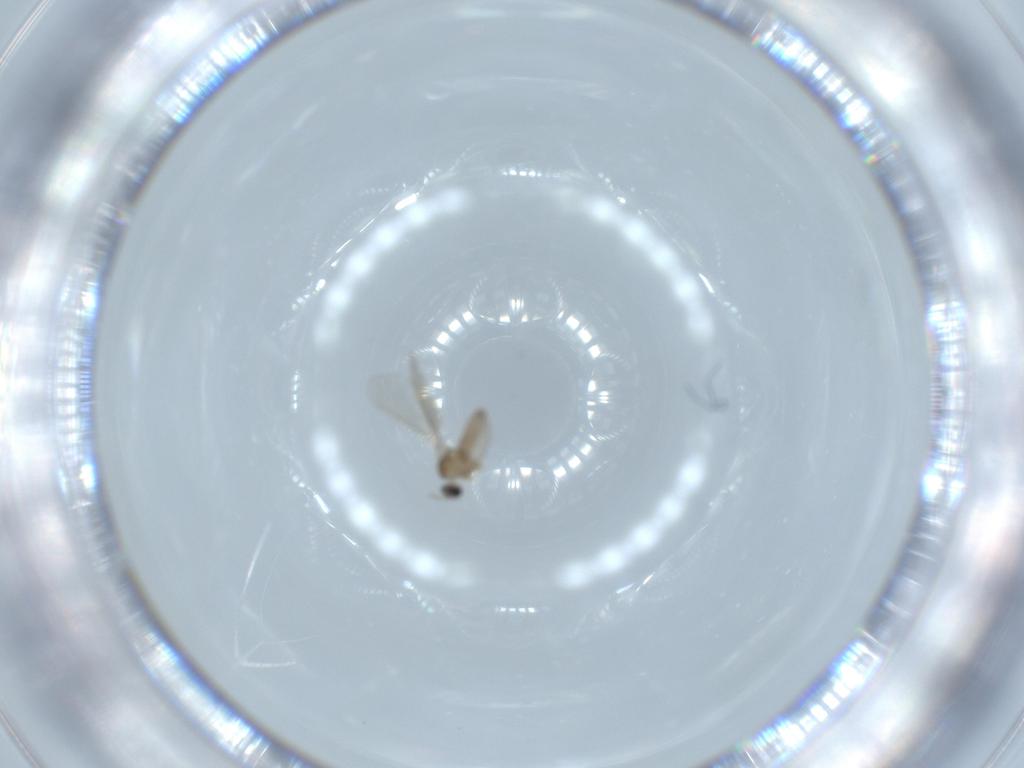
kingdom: Animalia
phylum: Arthropoda
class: Insecta
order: Diptera
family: Cecidomyiidae
